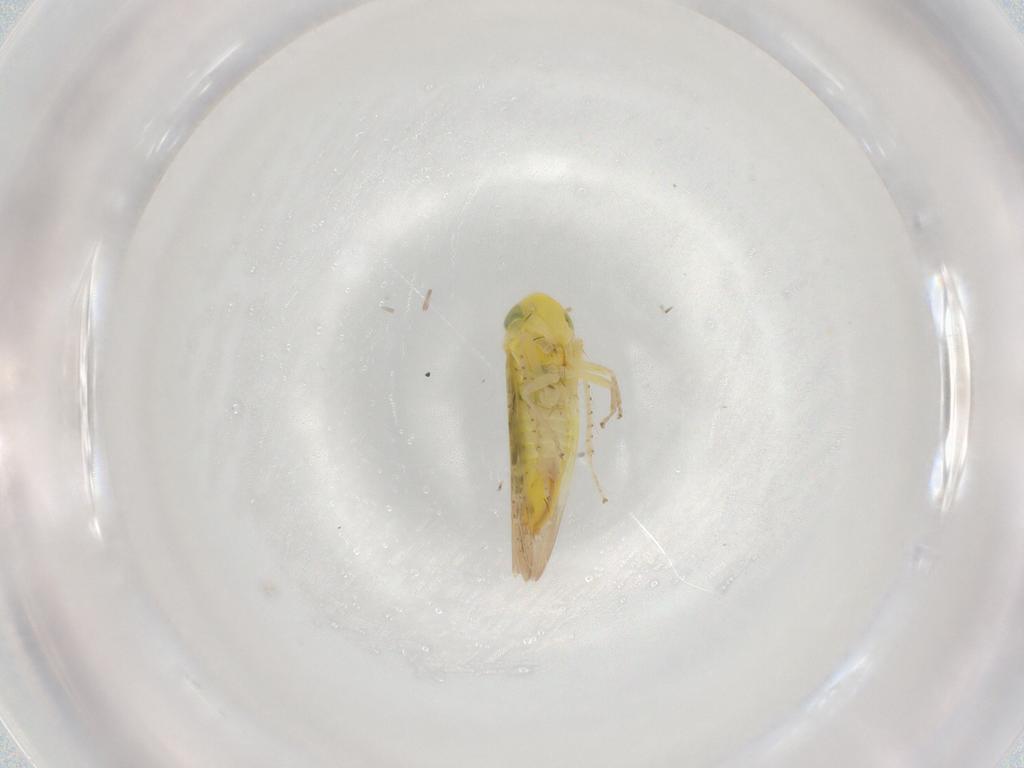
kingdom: Animalia
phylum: Arthropoda
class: Insecta
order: Hemiptera
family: Cicadellidae
